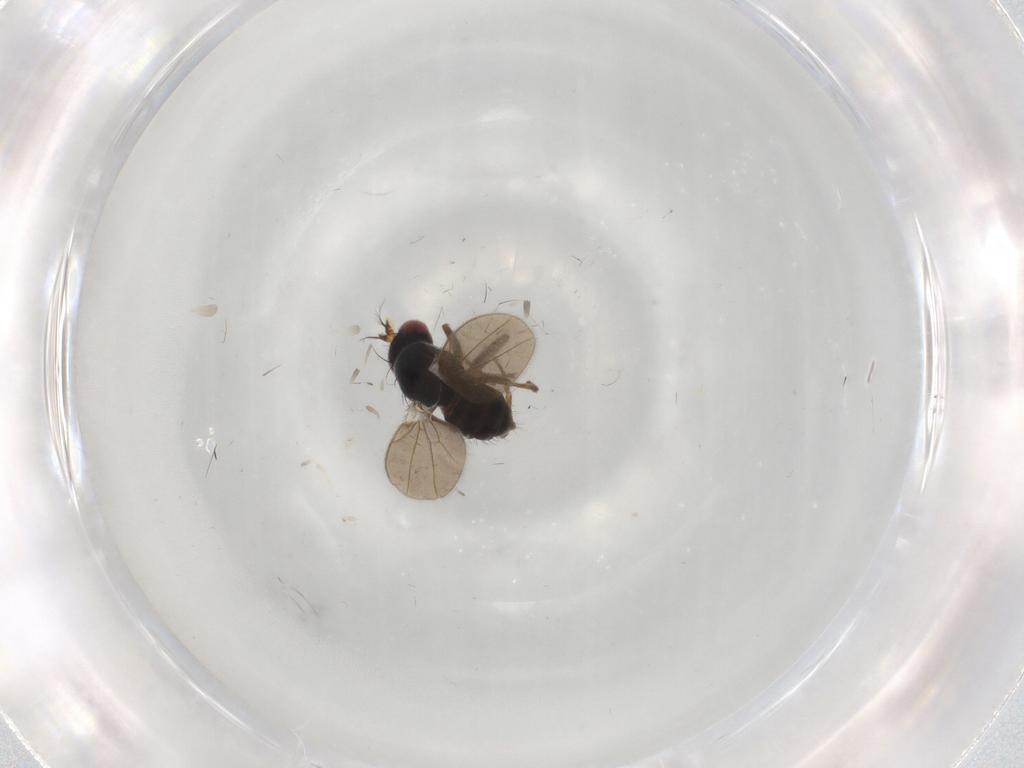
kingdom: Animalia
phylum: Arthropoda
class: Insecta
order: Diptera
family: Ephydridae
